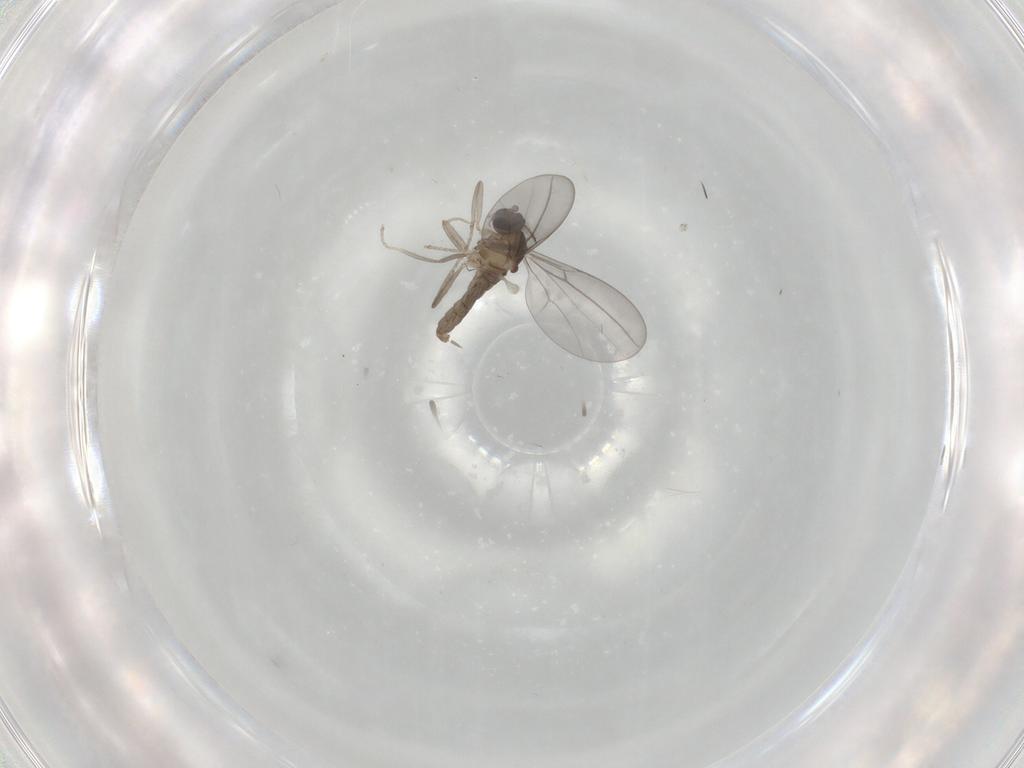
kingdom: Animalia
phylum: Arthropoda
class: Insecta
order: Diptera
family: Cecidomyiidae
